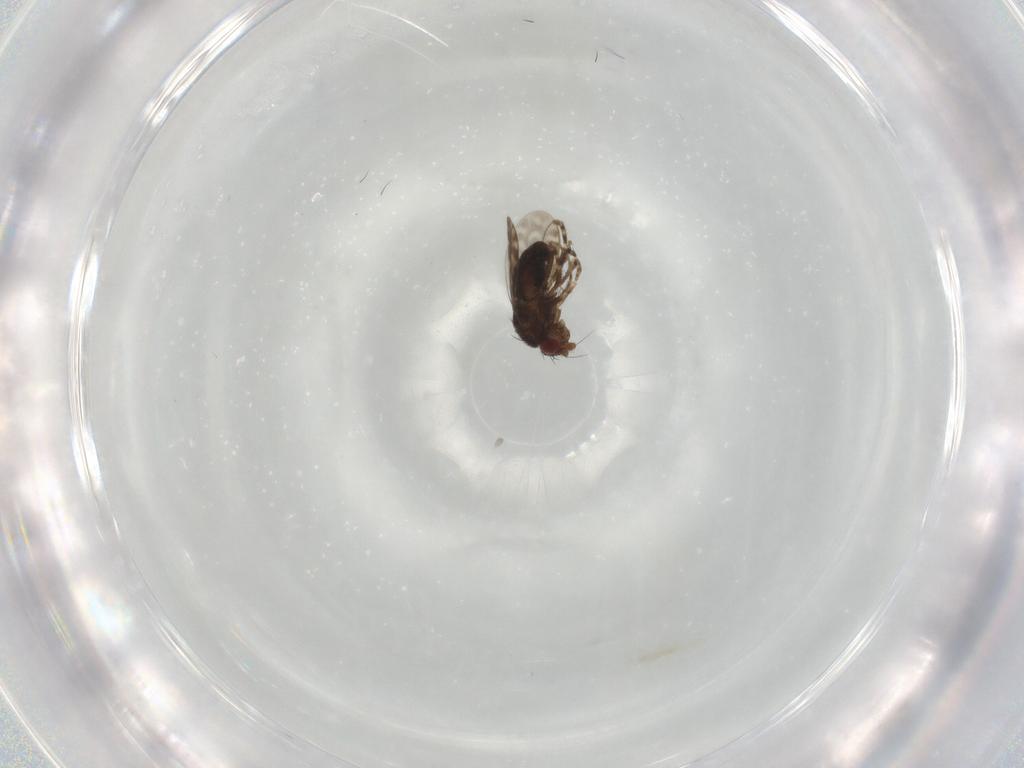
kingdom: Animalia
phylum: Arthropoda
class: Insecta
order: Diptera
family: Sphaeroceridae
